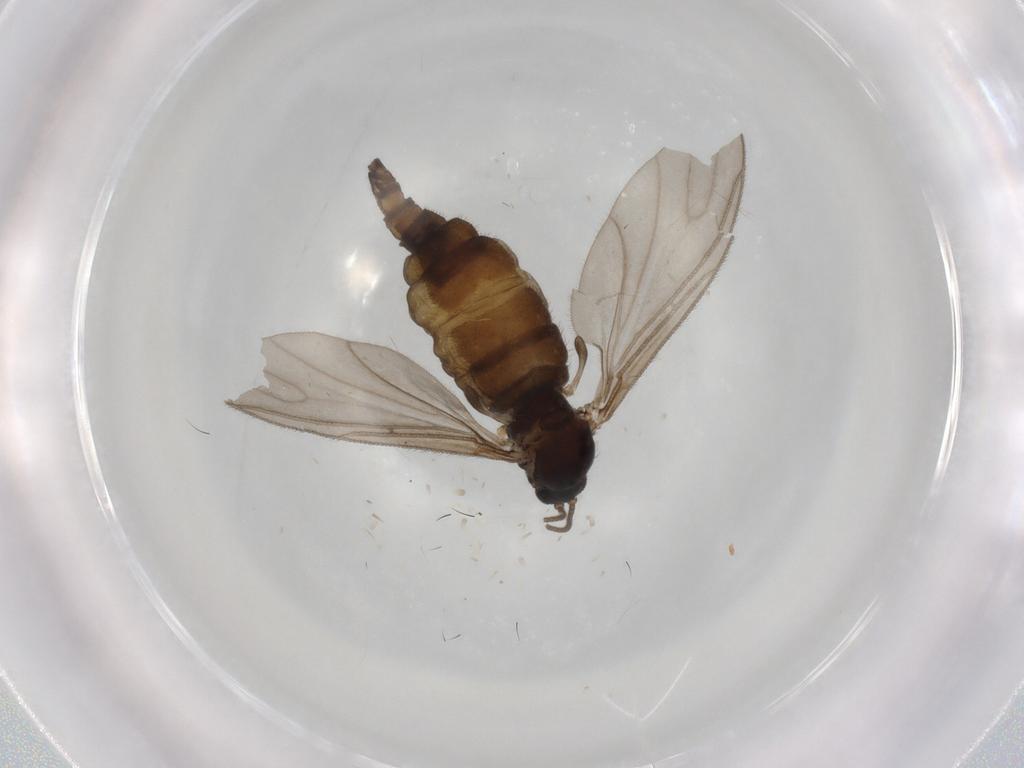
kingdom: Animalia
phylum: Arthropoda
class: Insecta
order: Diptera
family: Sciaridae
